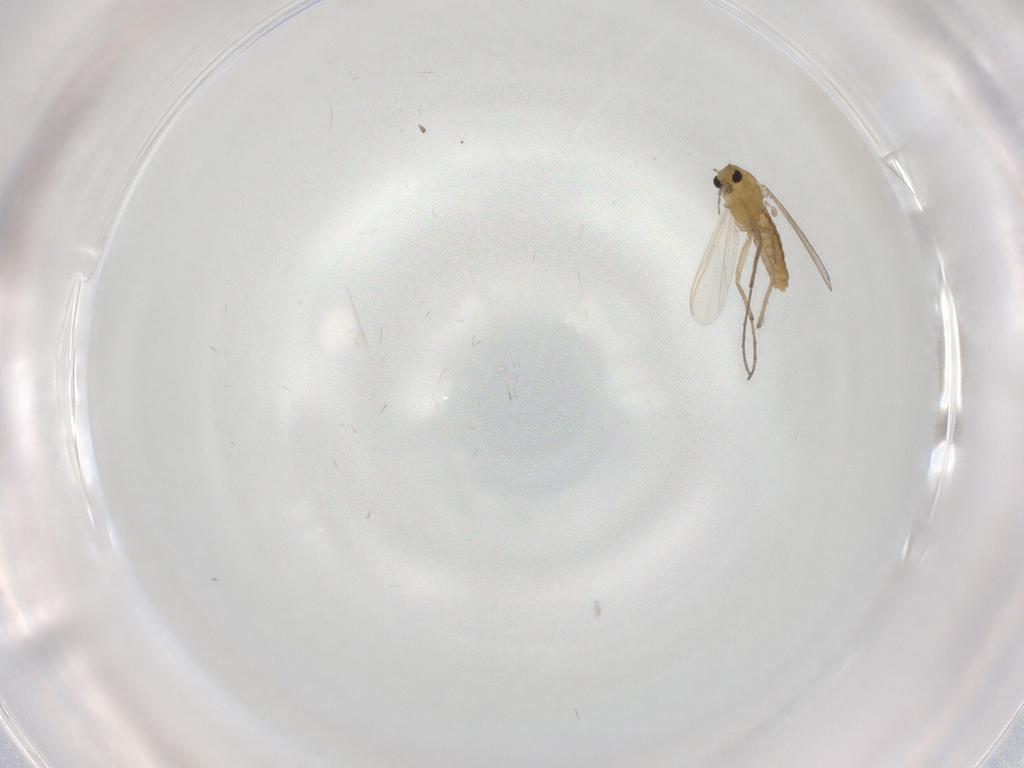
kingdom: Animalia
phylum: Arthropoda
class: Insecta
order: Diptera
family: Chironomidae
